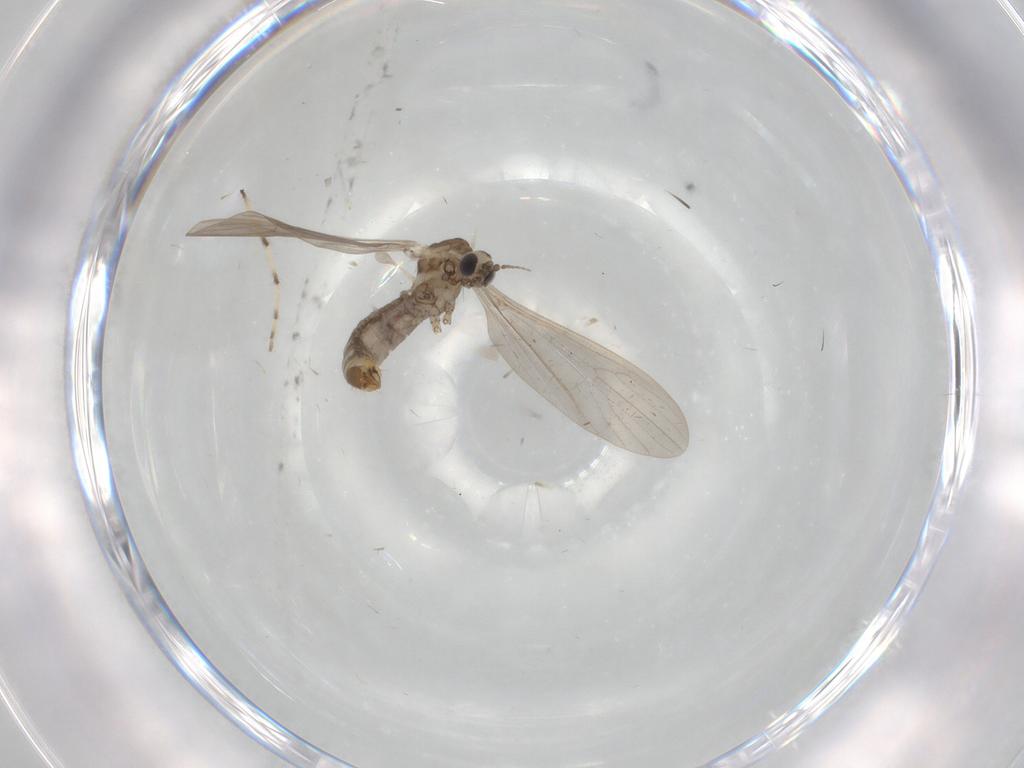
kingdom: Animalia
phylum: Arthropoda
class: Insecta
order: Diptera
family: Limoniidae
